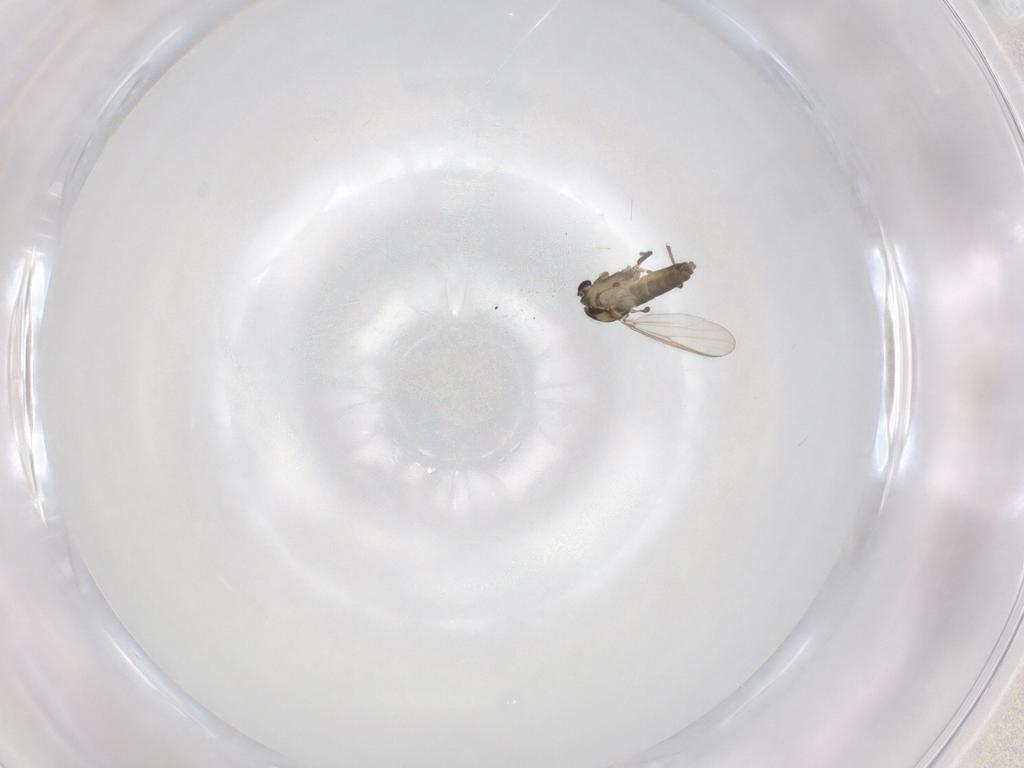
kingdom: Animalia
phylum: Arthropoda
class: Insecta
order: Diptera
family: Chironomidae
